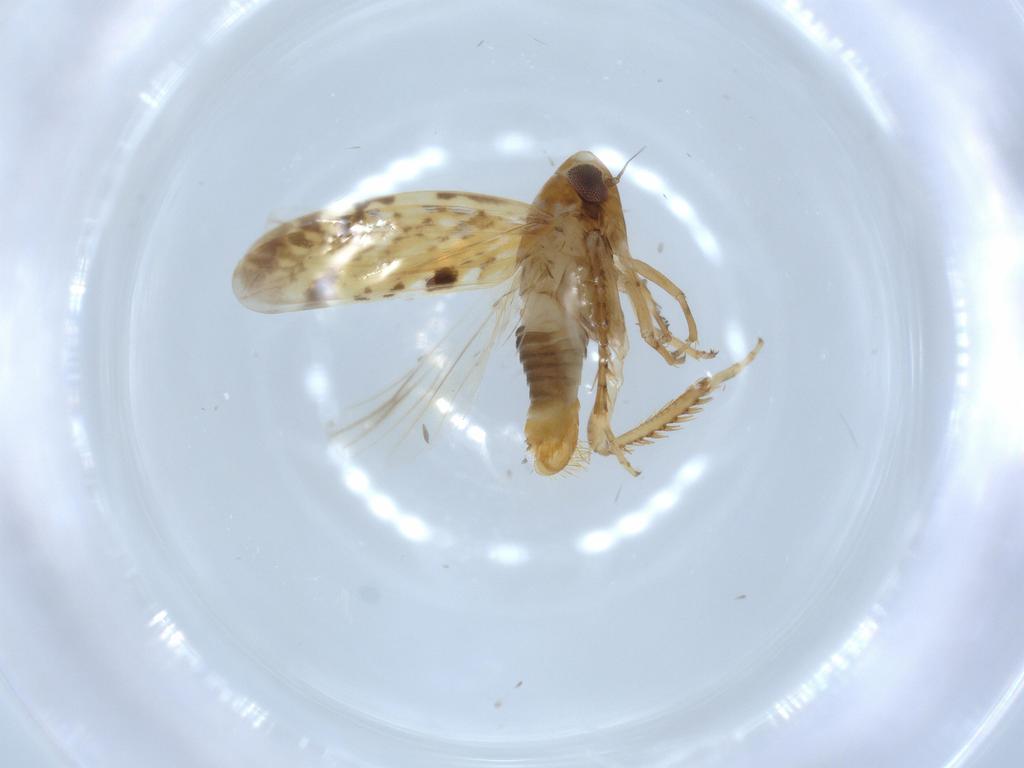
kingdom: Animalia
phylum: Arthropoda
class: Insecta
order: Hemiptera
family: Cicadellidae
